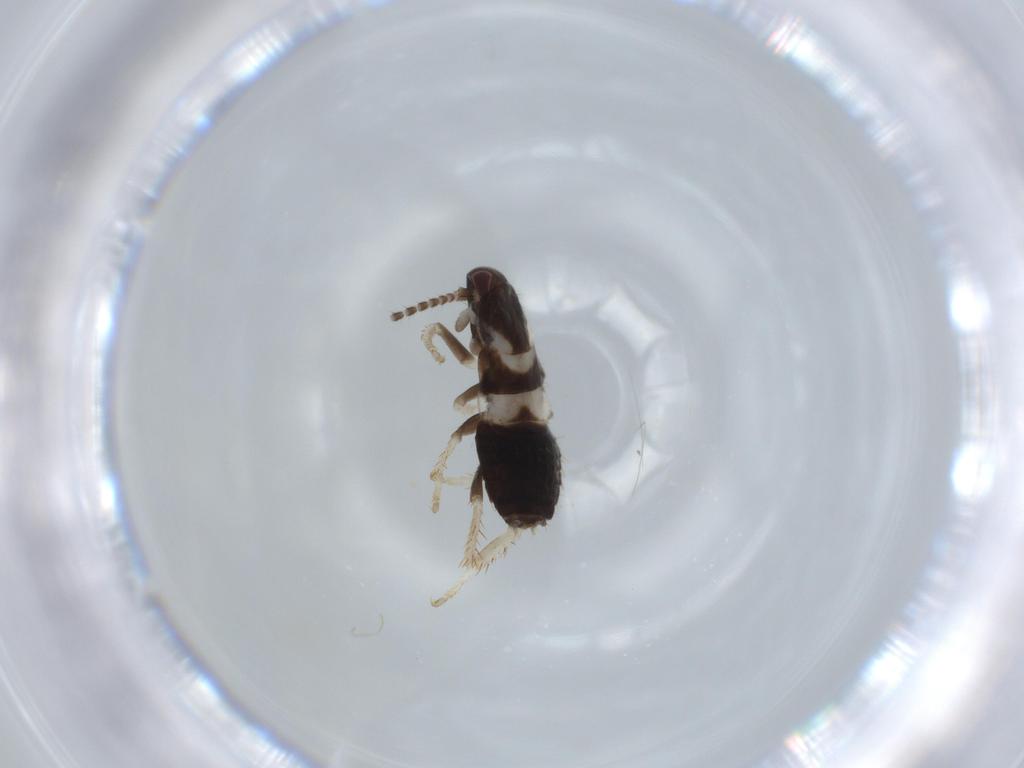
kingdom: Animalia
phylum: Arthropoda
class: Insecta
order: Blattodea
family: Ectobiidae
